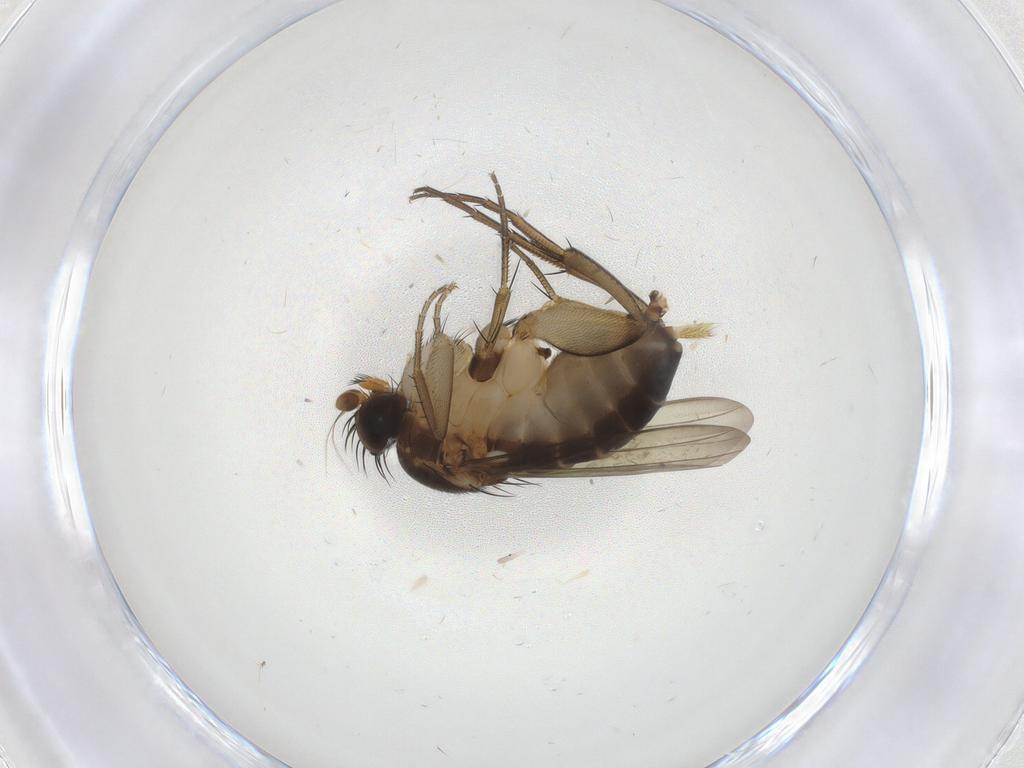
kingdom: Animalia
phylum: Arthropoda
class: Insecta
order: Diptera
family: Phoridae
